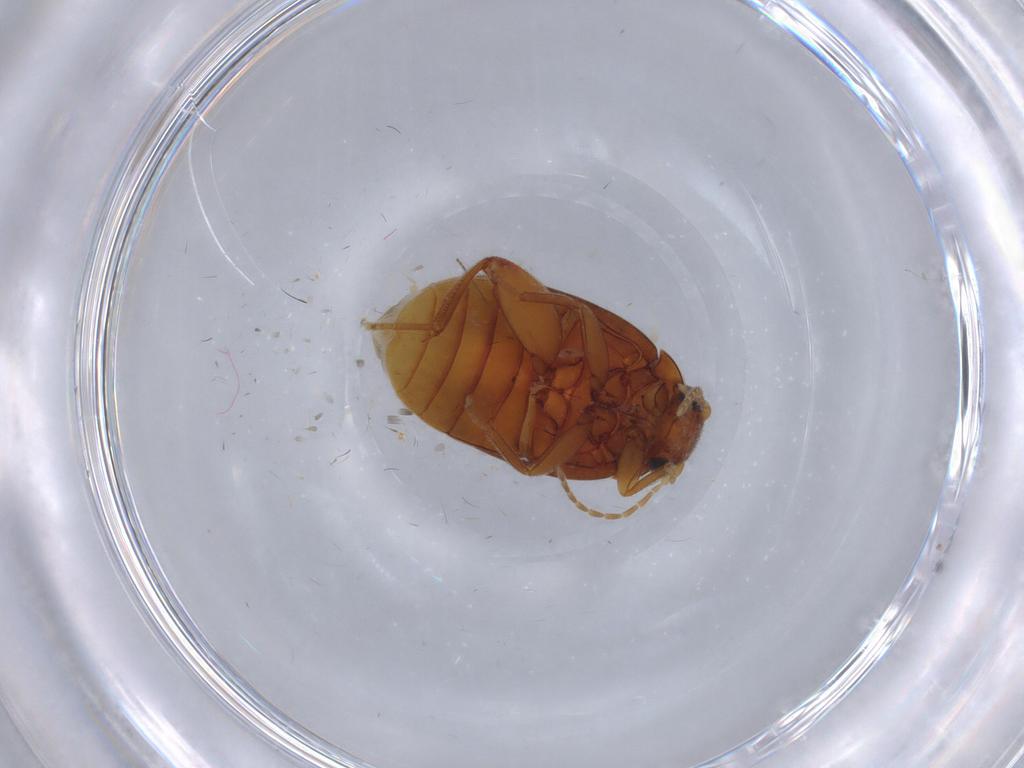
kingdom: Animalia
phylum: Arthropoda
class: Insecta
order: Coleoptera
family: Scirtidae
